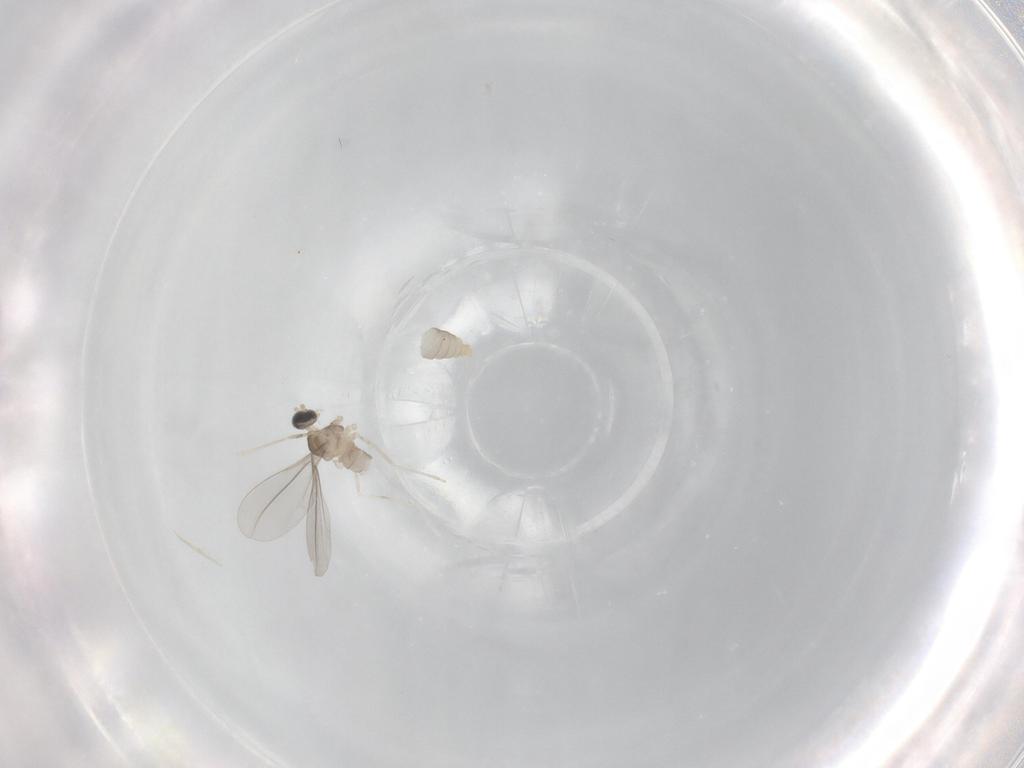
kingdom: Animalia
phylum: Arthropoda
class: Insecta
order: Diptera
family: Cecidomyiidae
